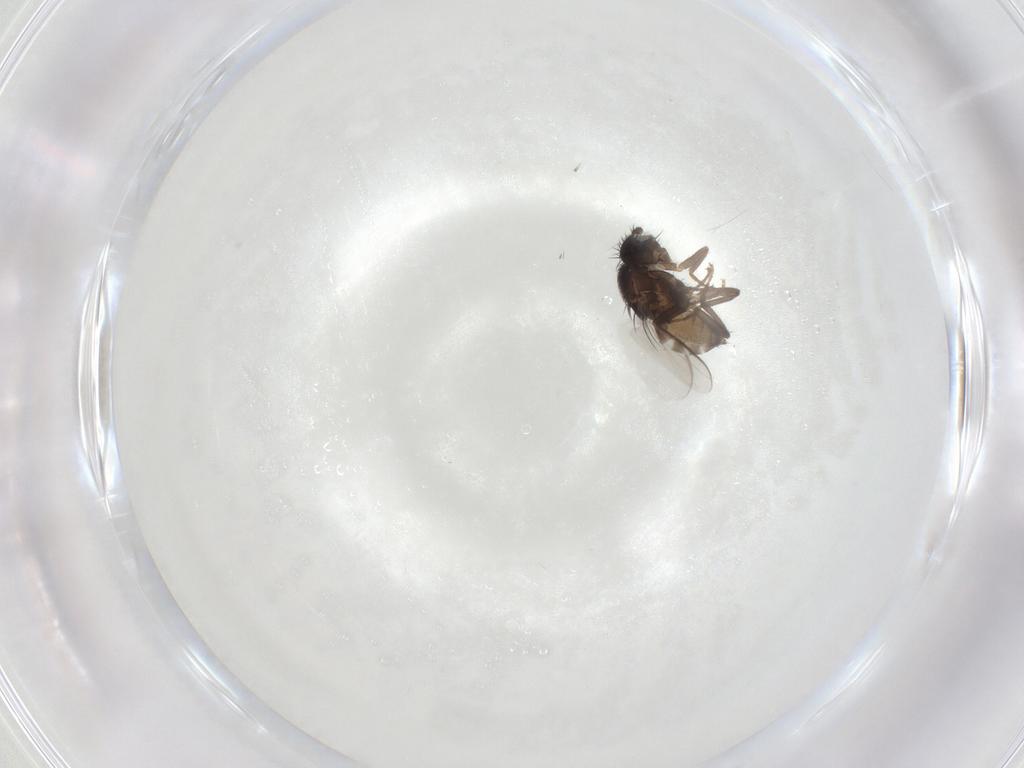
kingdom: Animalia
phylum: Arthropoda
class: Insecta
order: Diptera
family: Sphaeroceridae
